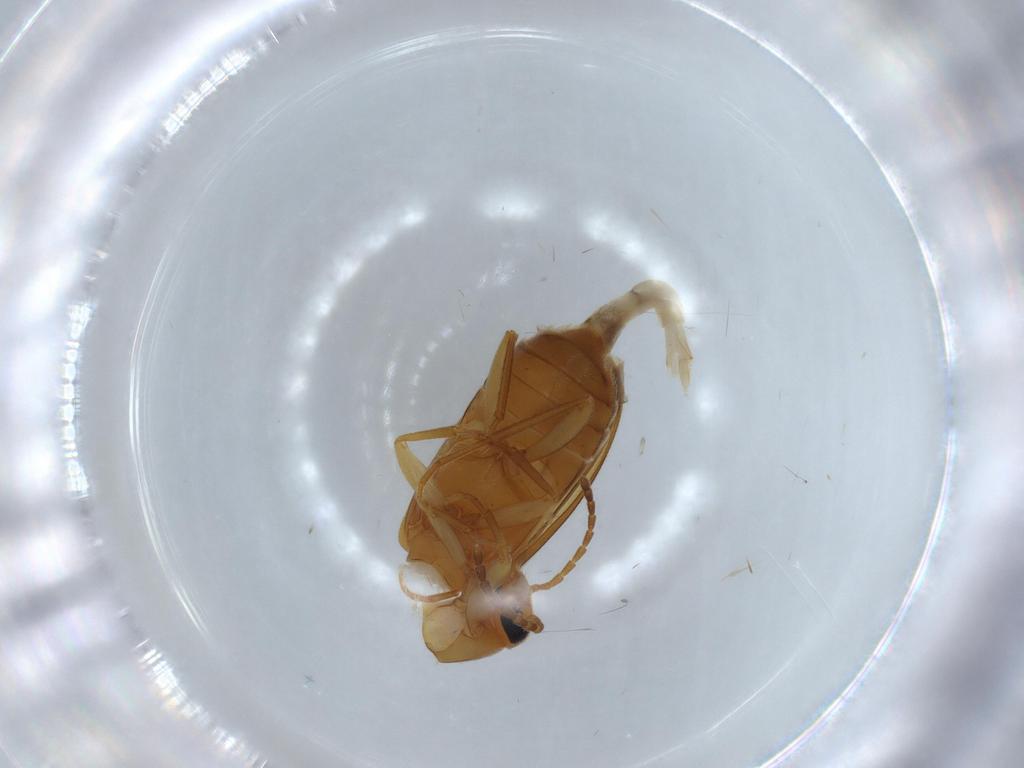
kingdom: Animalia
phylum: Arthropoda
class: Insecta
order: Coleoptera
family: Scraptiidae
